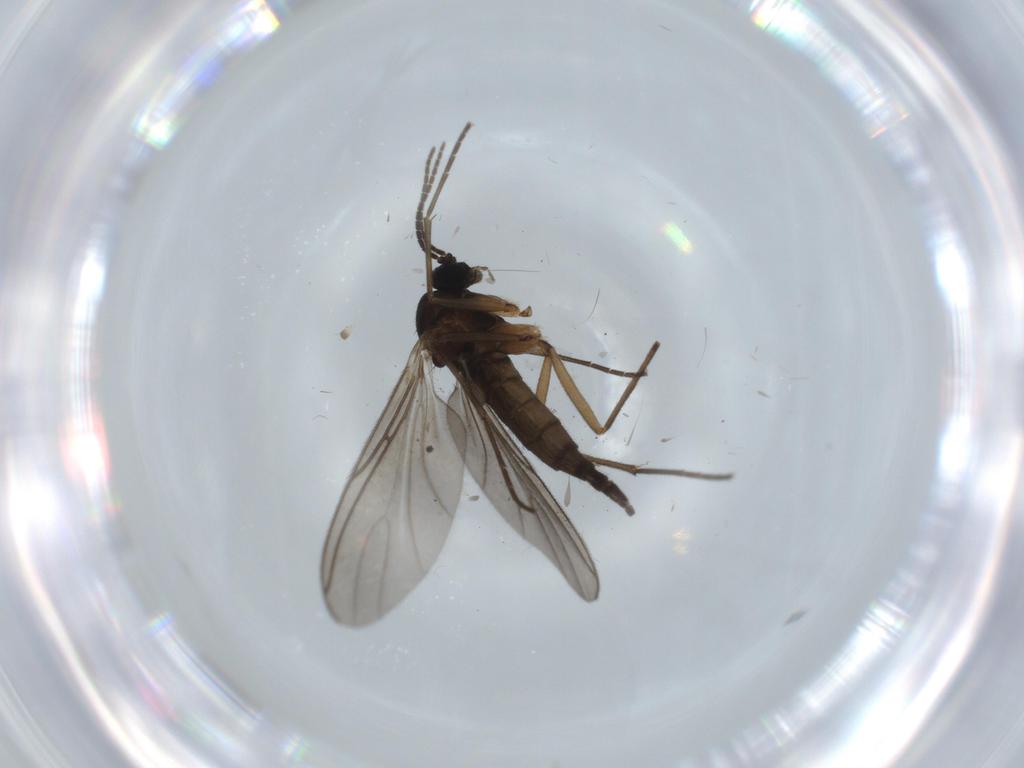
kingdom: Animalia
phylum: Arthropoda
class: Insecta
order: Diptera
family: Sciaridae
